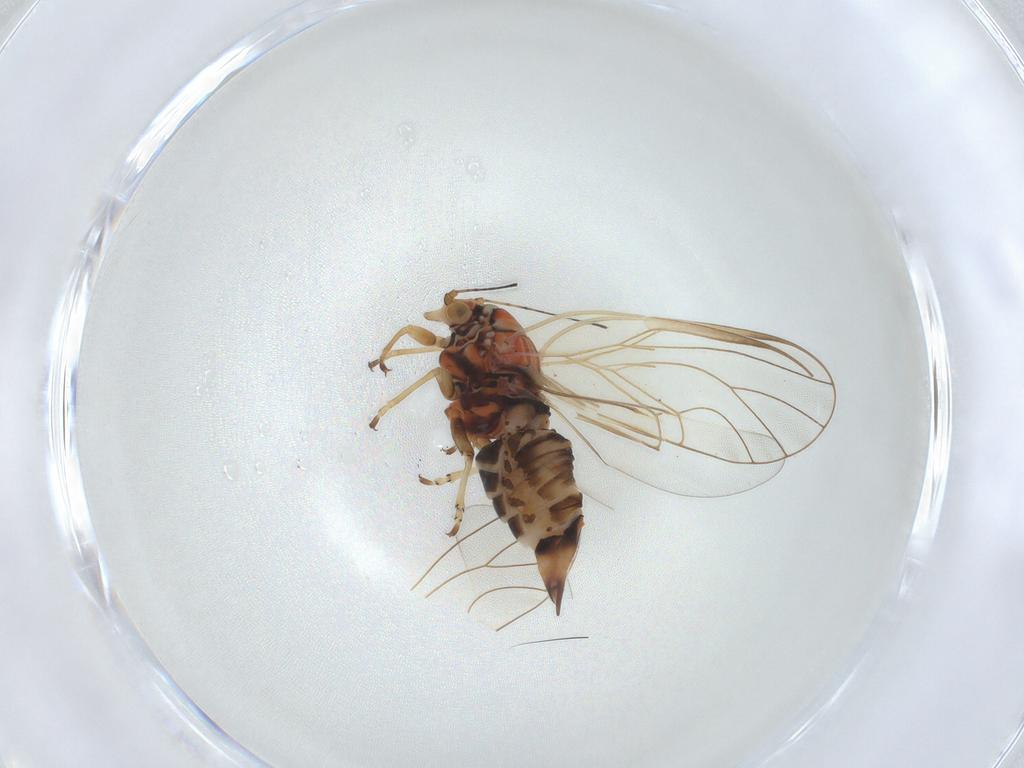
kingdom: Animalia
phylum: Arthropoda
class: Insecta
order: Hemiptera
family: Psyllidae
